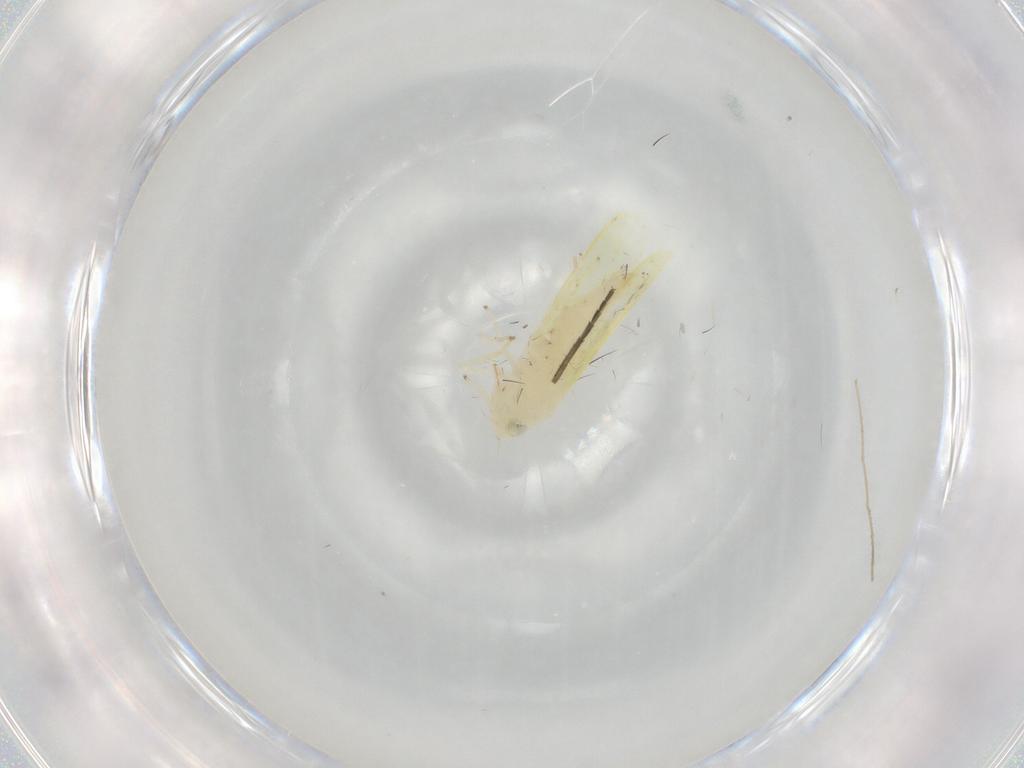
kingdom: Animalia
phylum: Arthropoda
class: Insecta
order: Hemiptera
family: Cicadellidae
